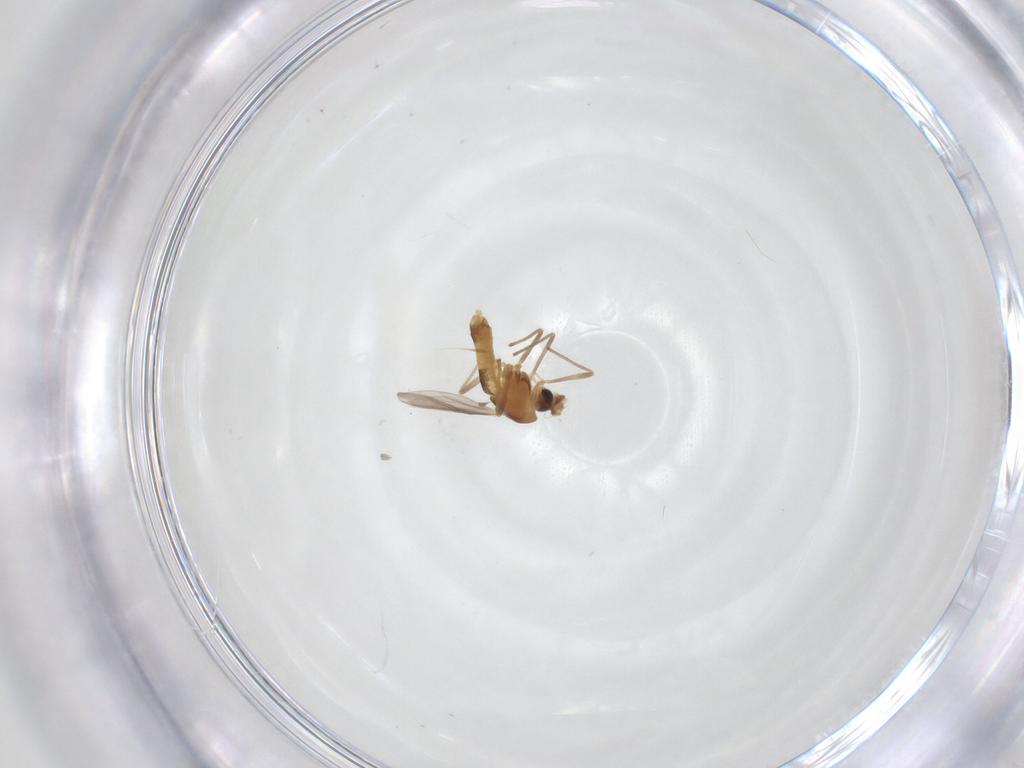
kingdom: Animalia
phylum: Arthropoda
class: Insecta
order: Diptera
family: Chironomidae
